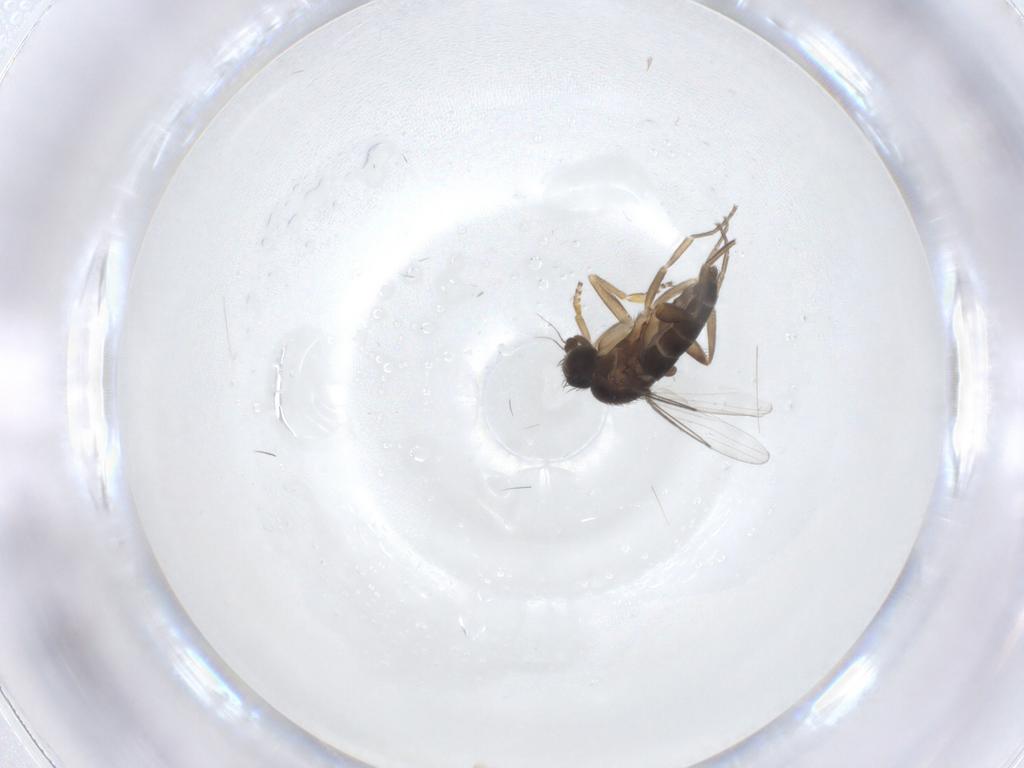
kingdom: Animalia
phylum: Arthropoda
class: Insecta
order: Diptera
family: Phoridae
